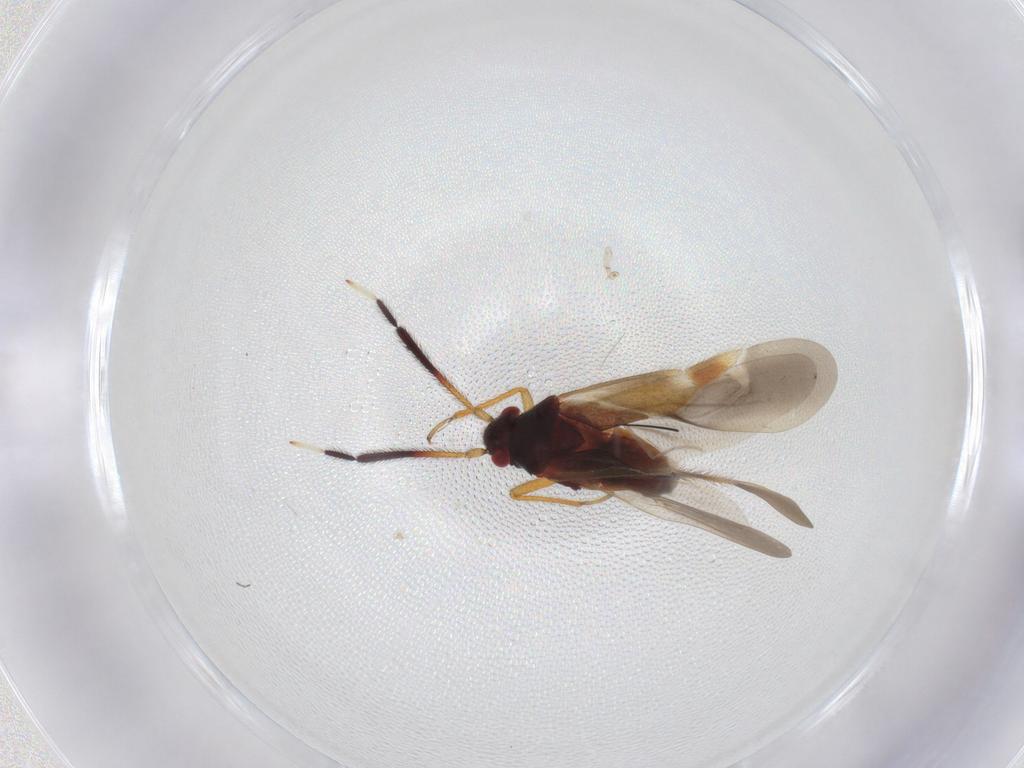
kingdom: Animalia
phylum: Arthropoda
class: Insecta
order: Hemiptera
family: Miridae
